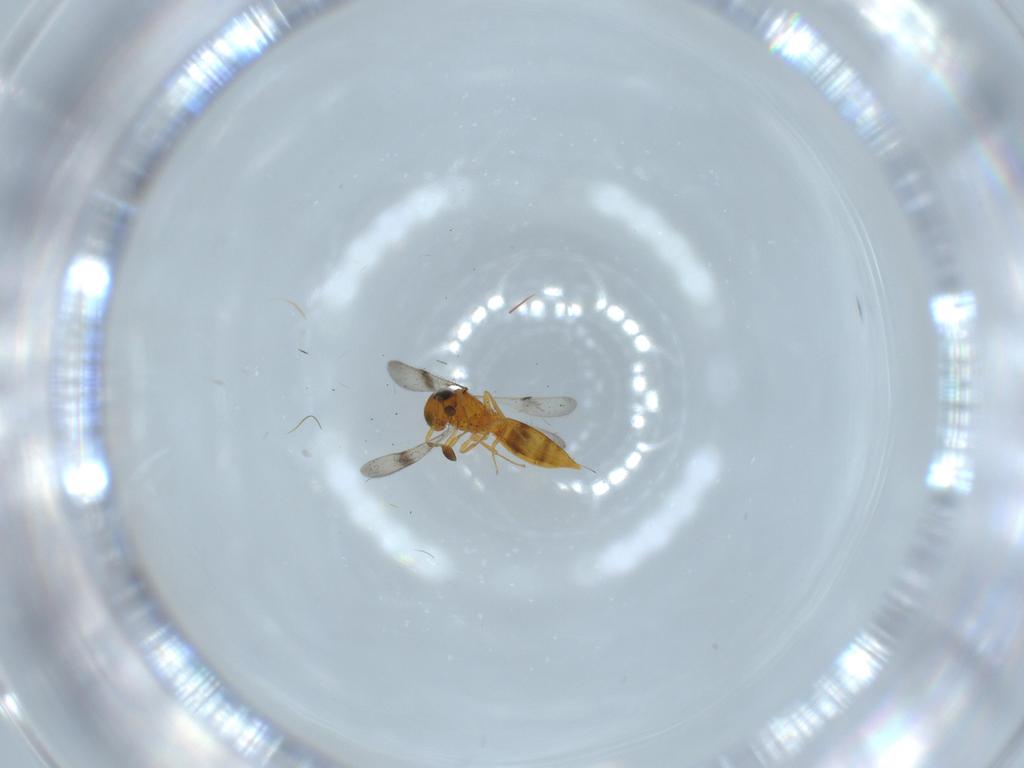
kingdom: Animalia
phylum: Arthropoda
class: Insecta
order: Hymenoptera
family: Scelionidae
